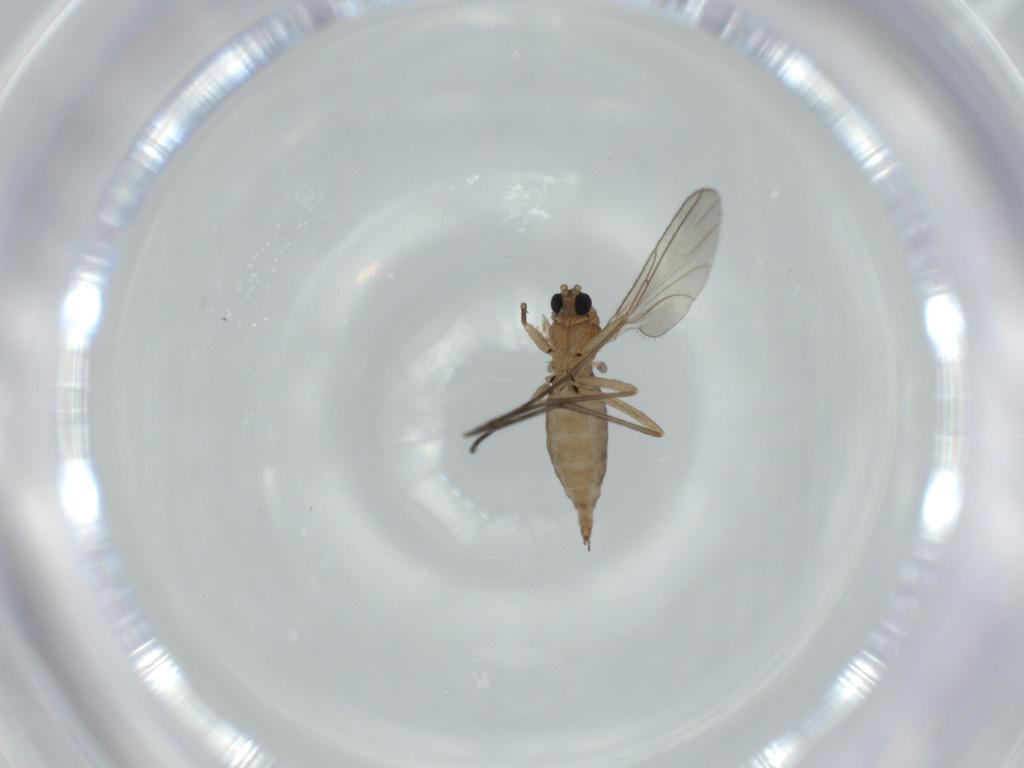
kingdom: Animalia
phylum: Arthropoda
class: Insecta
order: Diptera
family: Sciaridae
